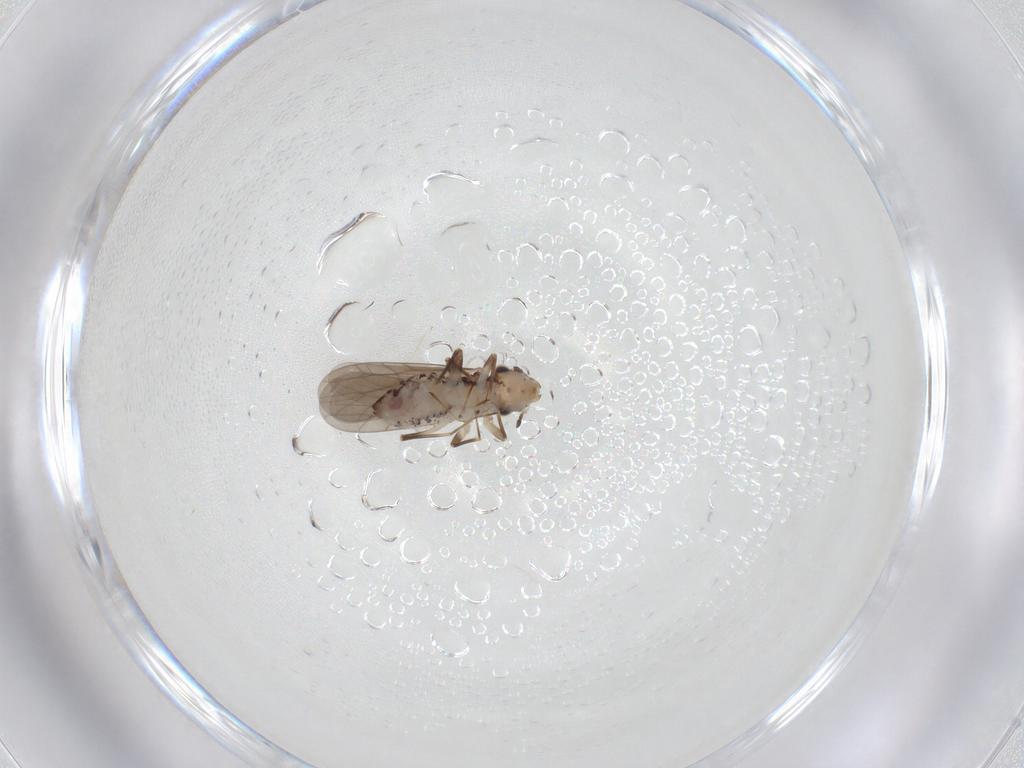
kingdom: Animalia
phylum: Arthropoda
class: Insecta
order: Psocodea
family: Lepidopsocidae
